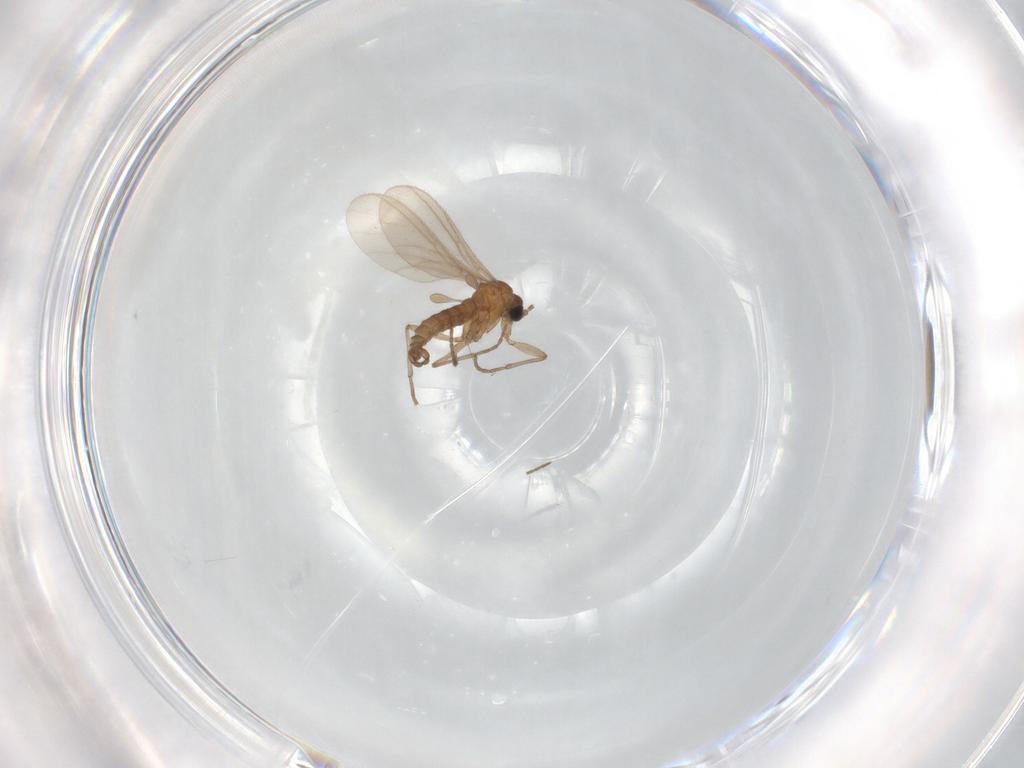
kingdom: Animalia
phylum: Arthropoda
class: Insecta
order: Diptera
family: Sciaridae
